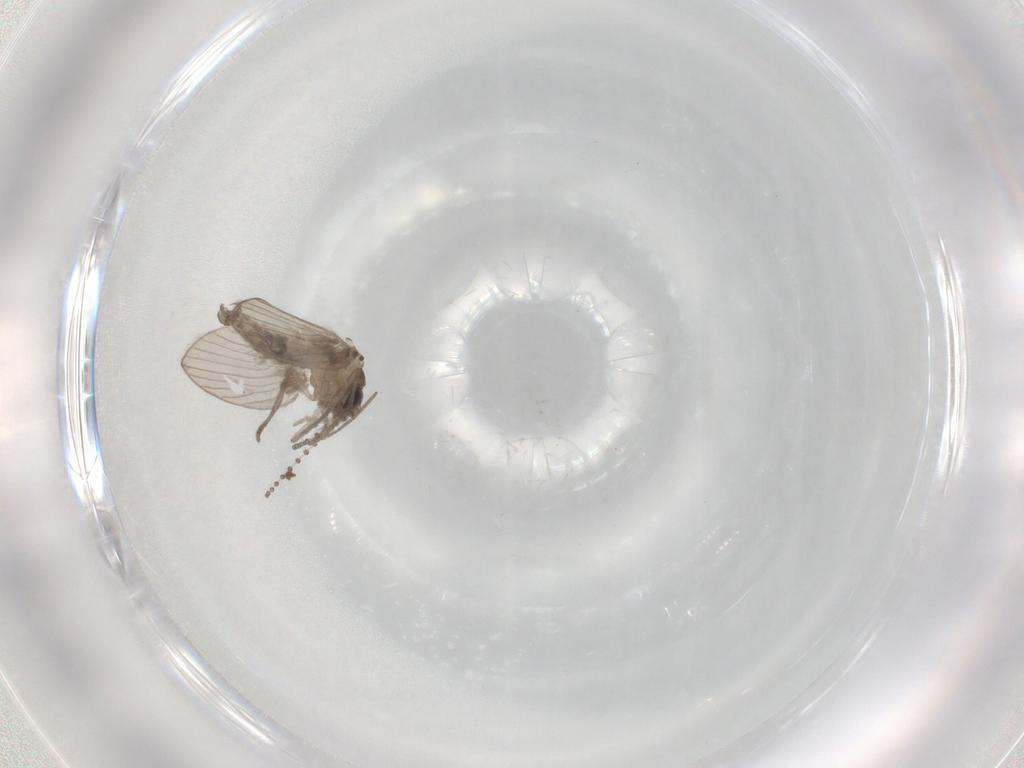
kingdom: Animalia
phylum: Arthropoda
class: Insecta
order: Diptera
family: Psychodidae
